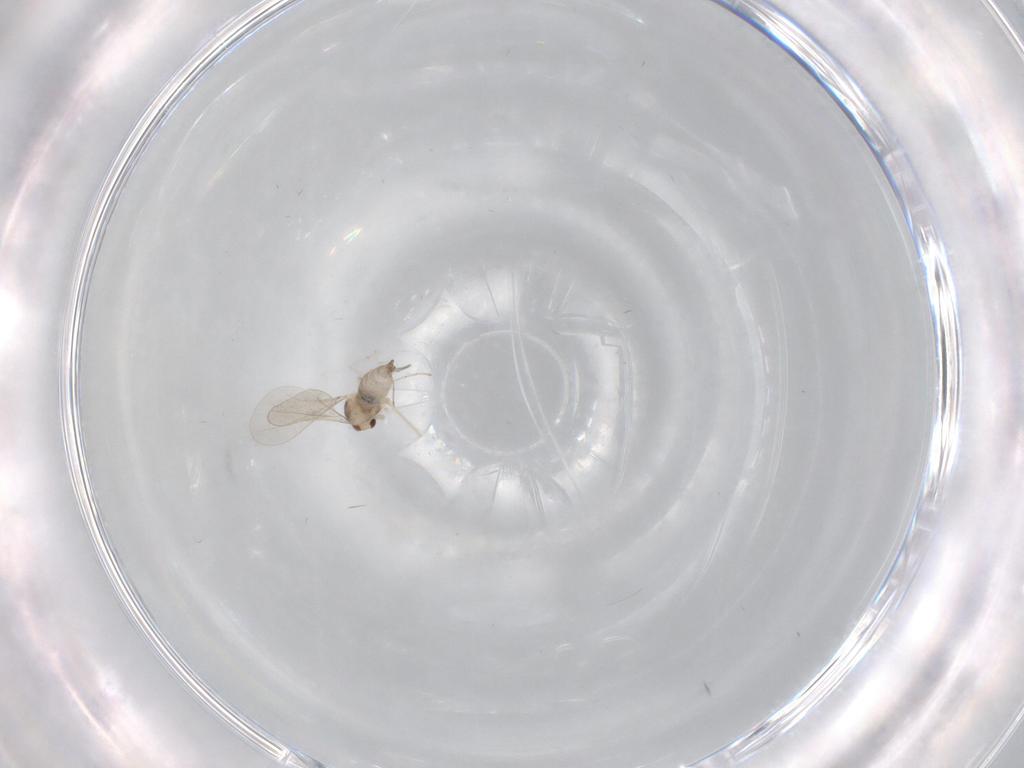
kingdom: Animalia
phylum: Arthropoda
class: Insecta
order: Diptera
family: Cecidomyiidae
